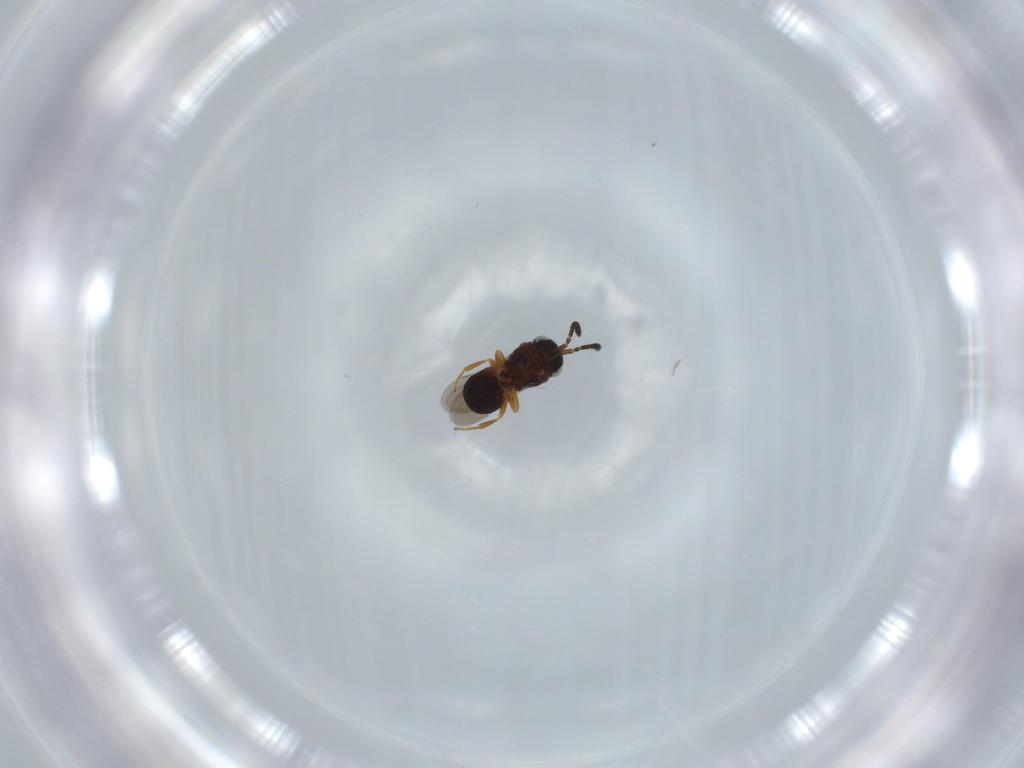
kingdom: Animalia
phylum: Arthropoda
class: Insecta
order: Hymenoptera
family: Scelionidae
